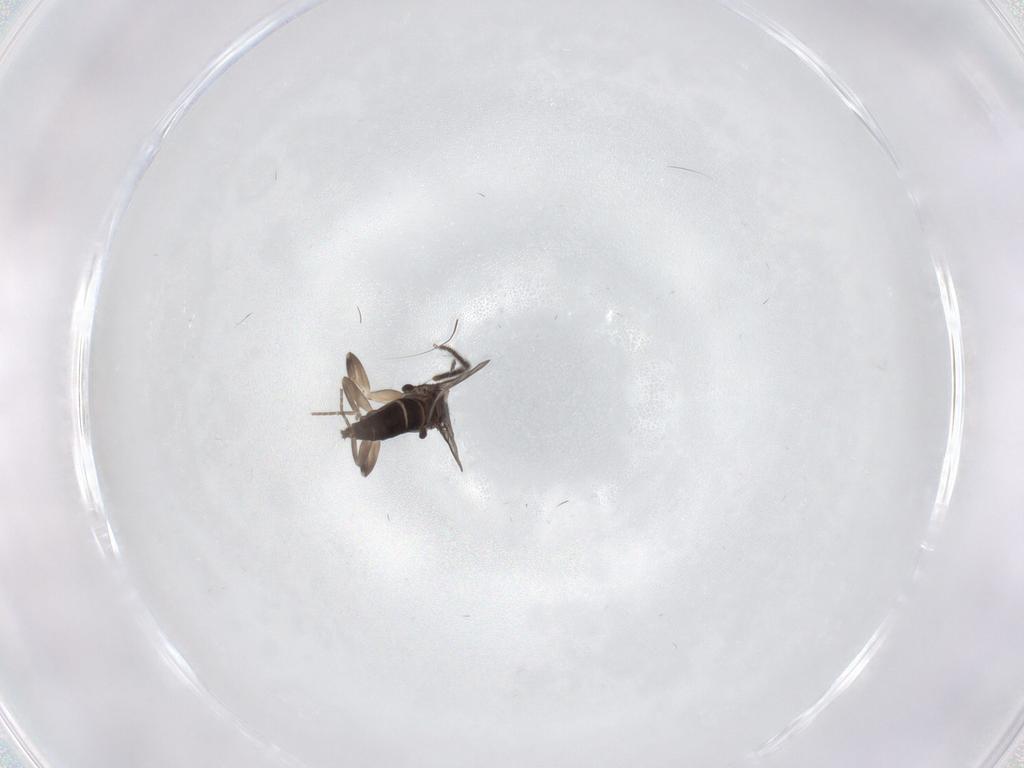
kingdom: Animalia
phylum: Arthropoda
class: Insecta
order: Diptera
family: Sciaridae
